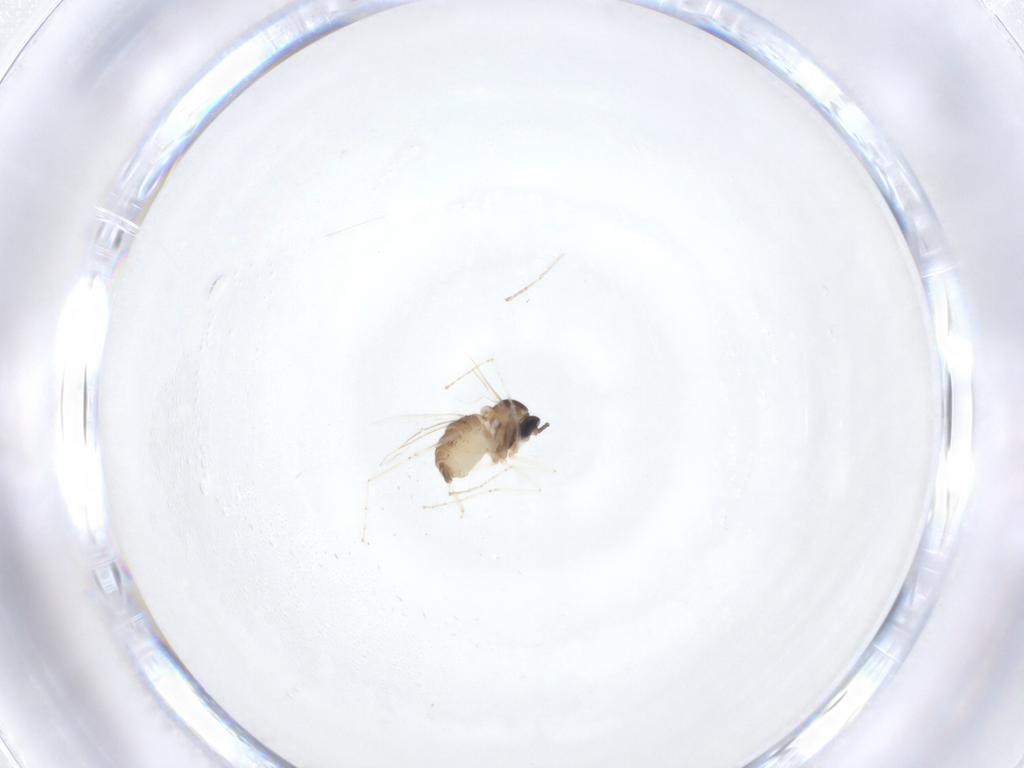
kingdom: Animalia
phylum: Arthropoda
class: Insecta
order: Diptera
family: Cecidomyiidae
